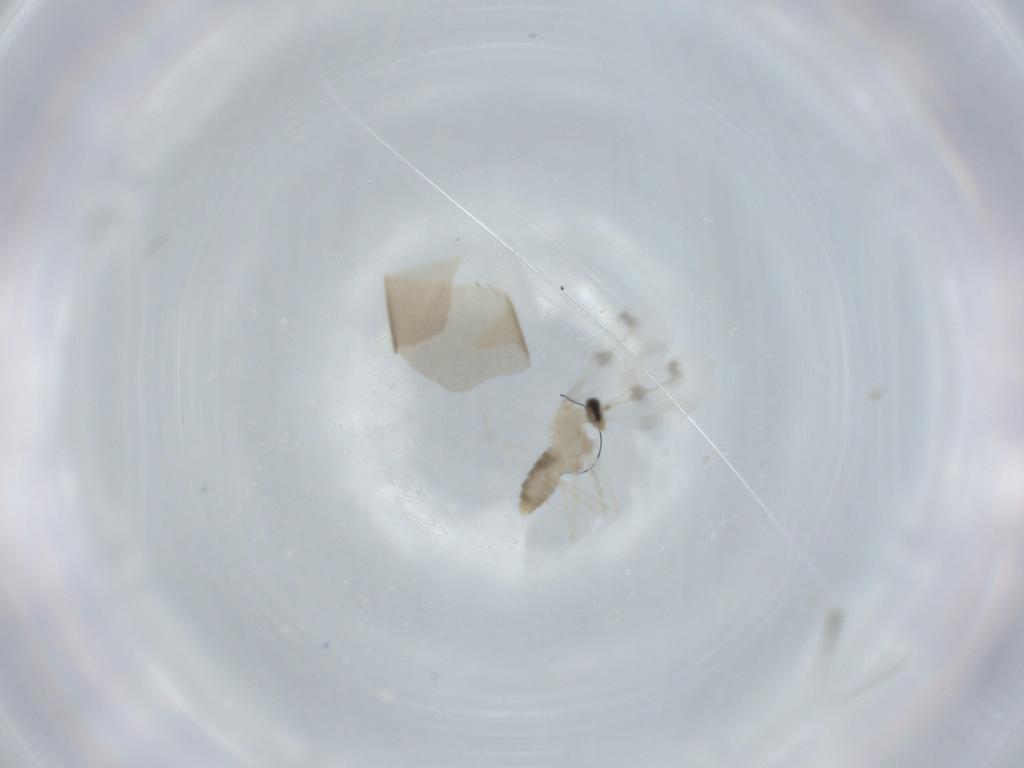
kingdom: Animalia
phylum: Arthropoda
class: Insecta
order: Diptera
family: Cecidomyiidae
